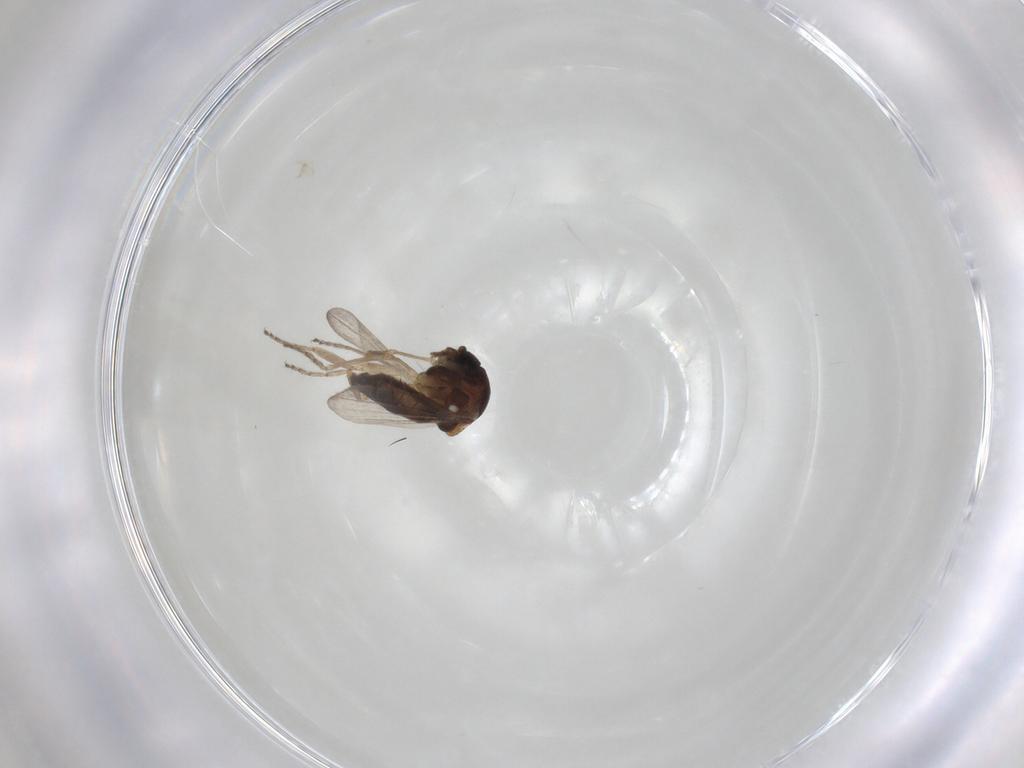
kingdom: Animalia
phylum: Arthropoda
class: Insecta
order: Diptera
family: Ceratopogonidae
